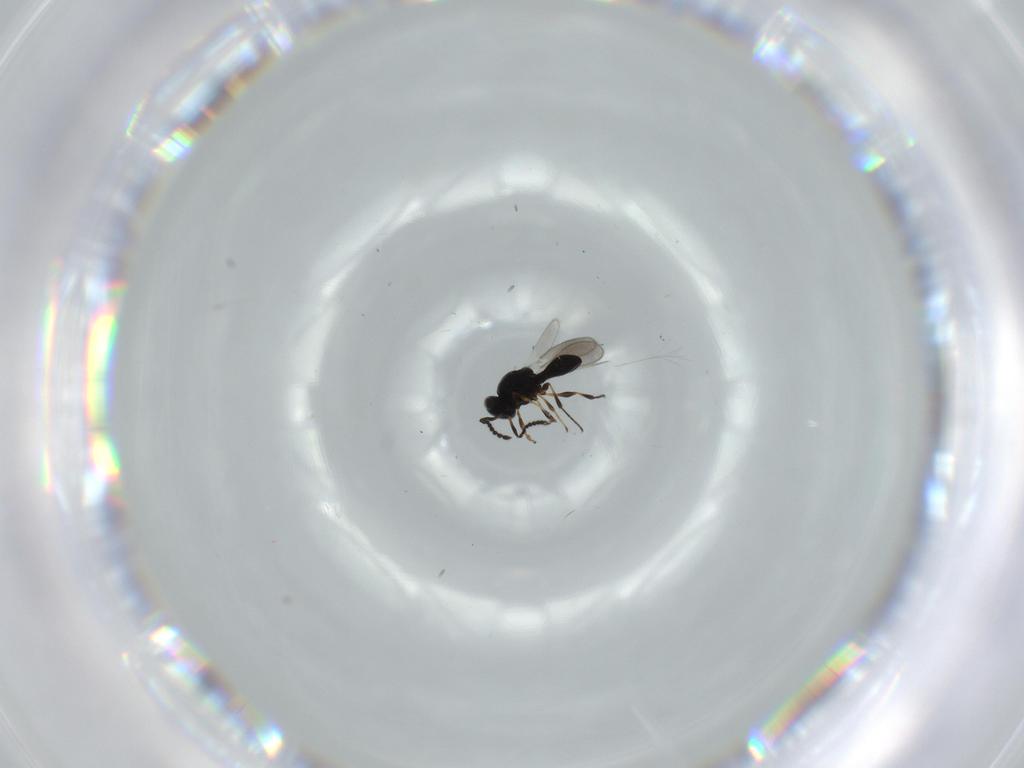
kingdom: Animalia
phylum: Arthropoda
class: Insecta
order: Hymenoptera
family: Platygastridae
